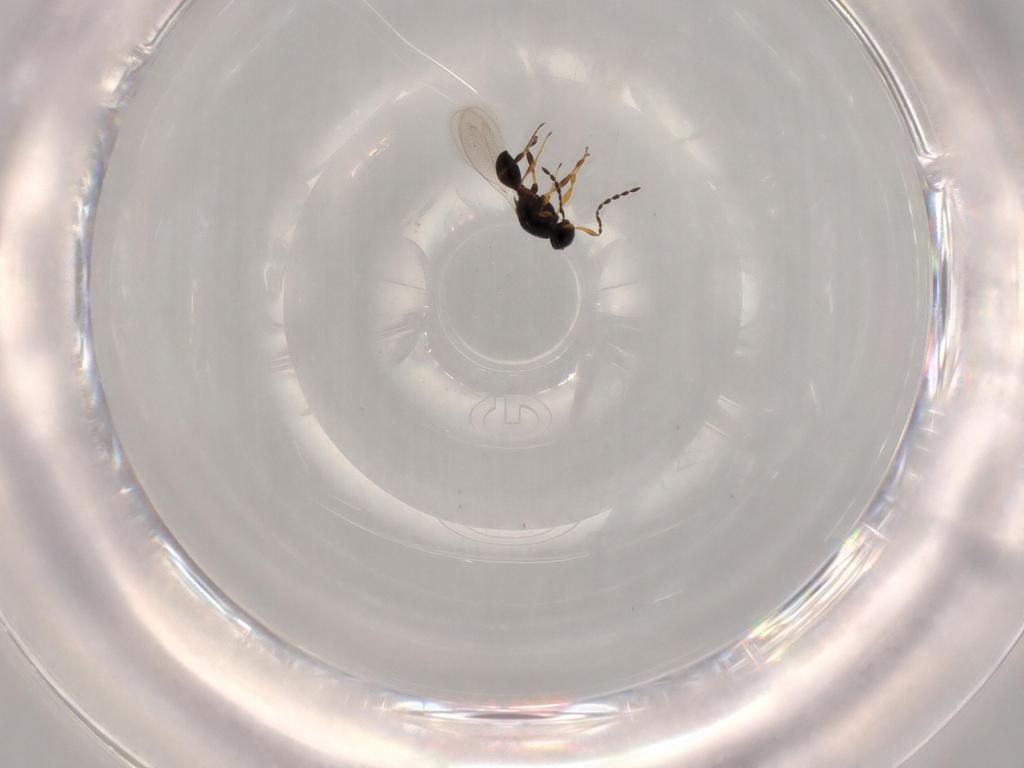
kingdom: Animalia
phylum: Arthropoda
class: Insecta
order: Hymenoptera
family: Platygastridae
